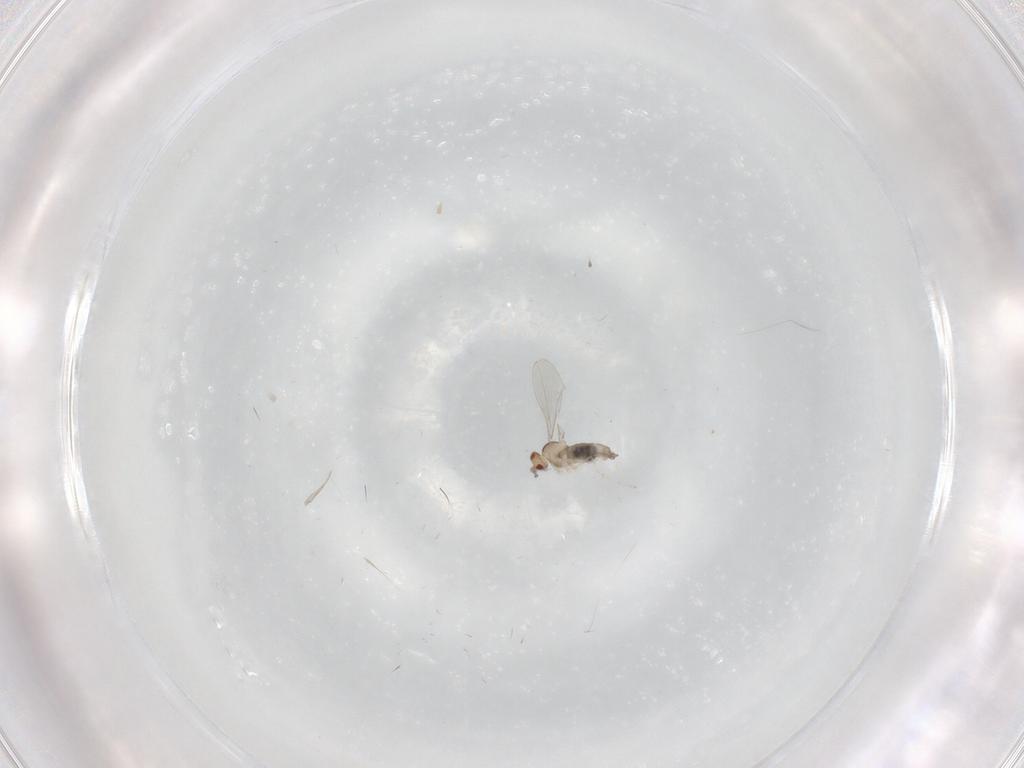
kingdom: Animalia
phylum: Arthropoda
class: Insecta
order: Diptera
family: Cecidomyiidae
